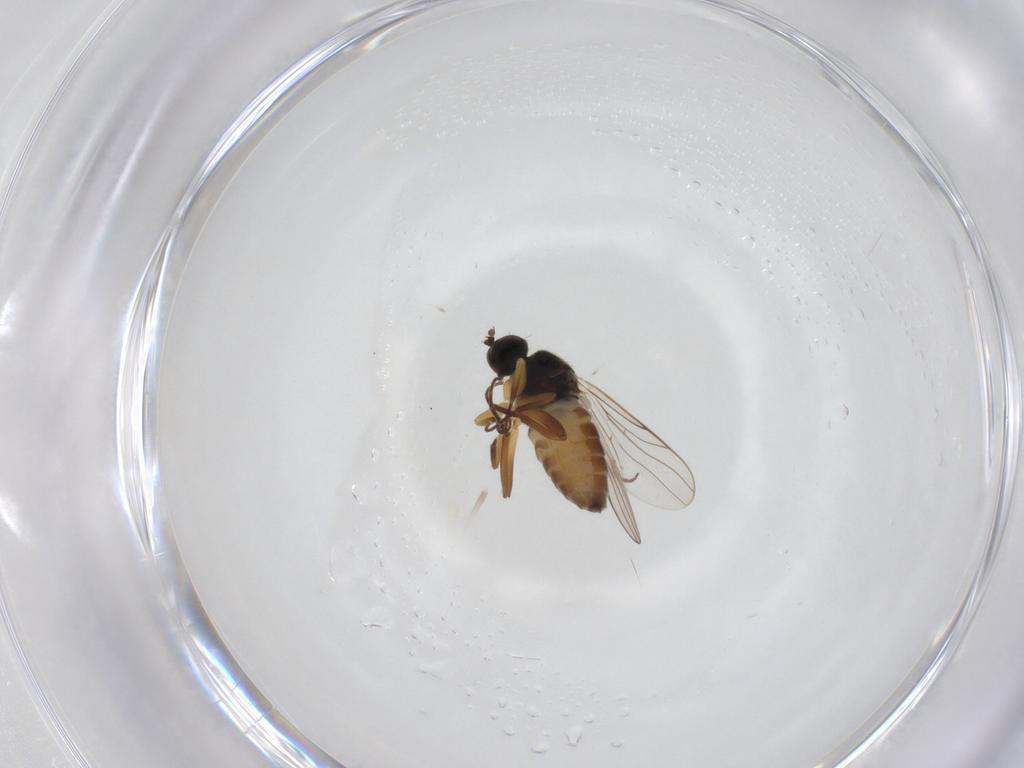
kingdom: Animalia
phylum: Arthropoda
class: Insecta
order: Diptera
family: Hybotidae
